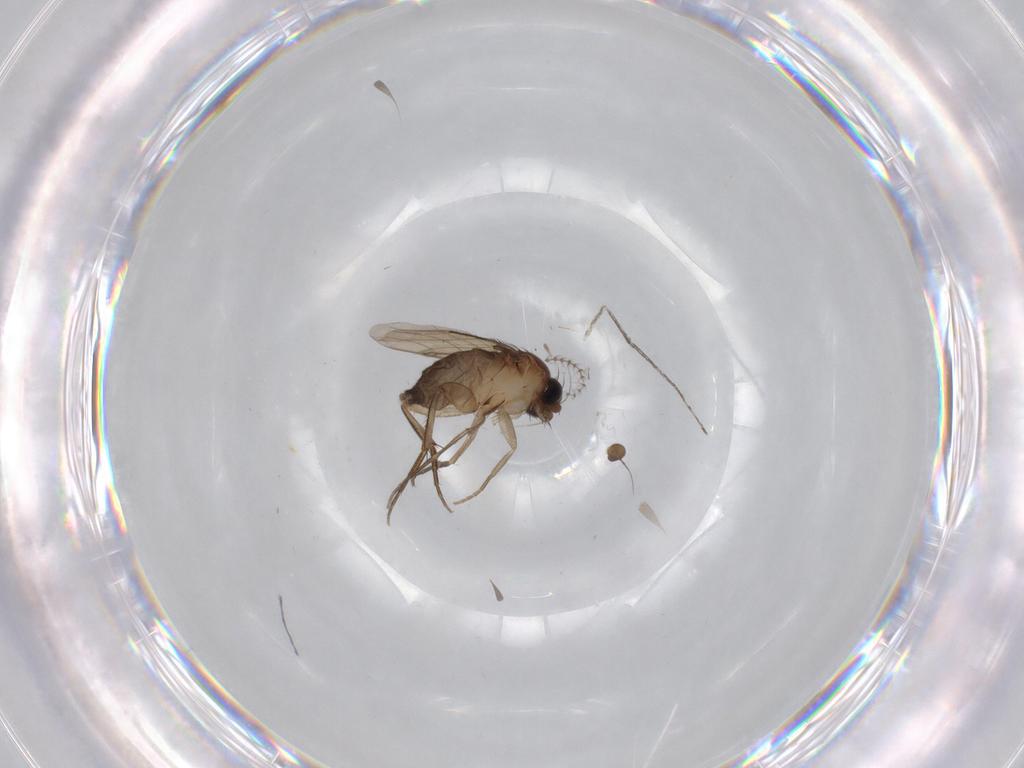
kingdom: Animalia
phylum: Arthropoda
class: Insecta
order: Diptera
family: Phoridae
